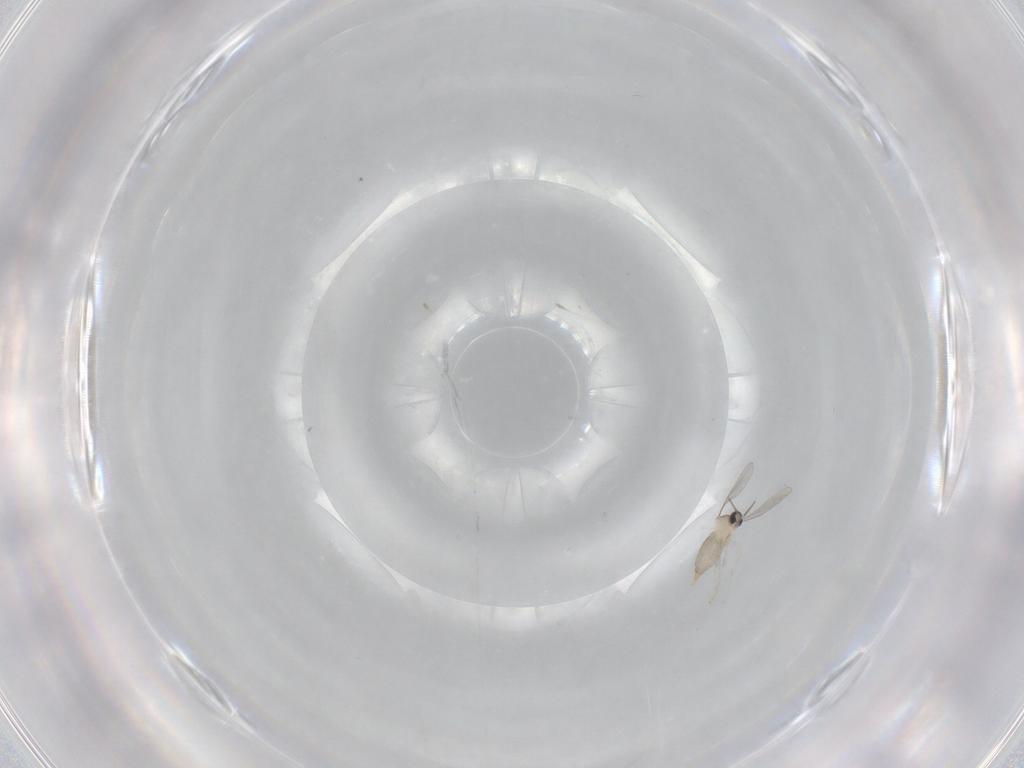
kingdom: Animalia
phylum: Arthropoda
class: Insecta
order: Diptera
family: Cecidomyiidae
